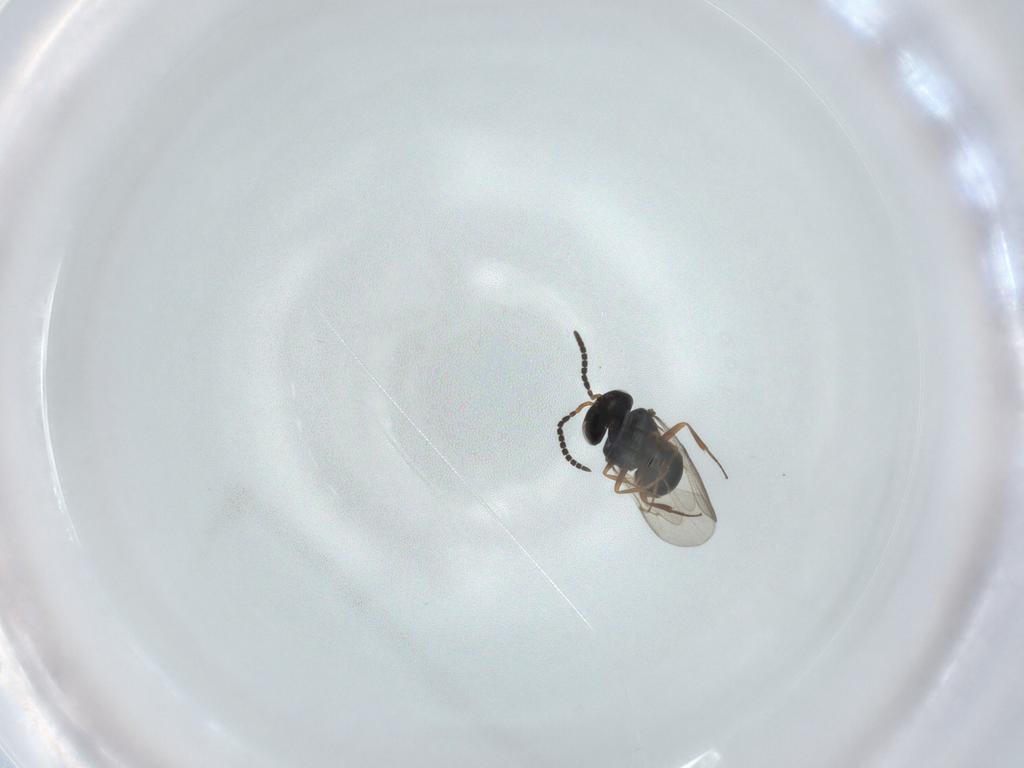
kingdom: Animalia
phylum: Arthropoda
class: Insecta
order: Hymenoptera
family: Scelionidae
